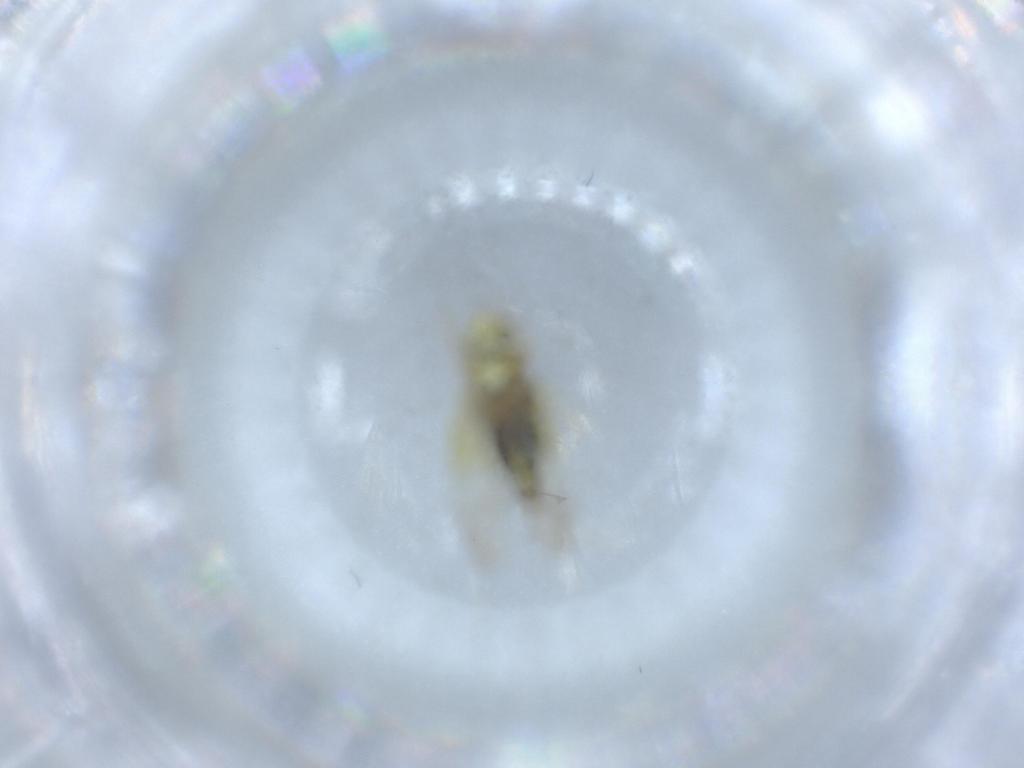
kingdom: Animalia
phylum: Arthropoda
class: Insecta
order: Hemiptera
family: Cicadellidae
